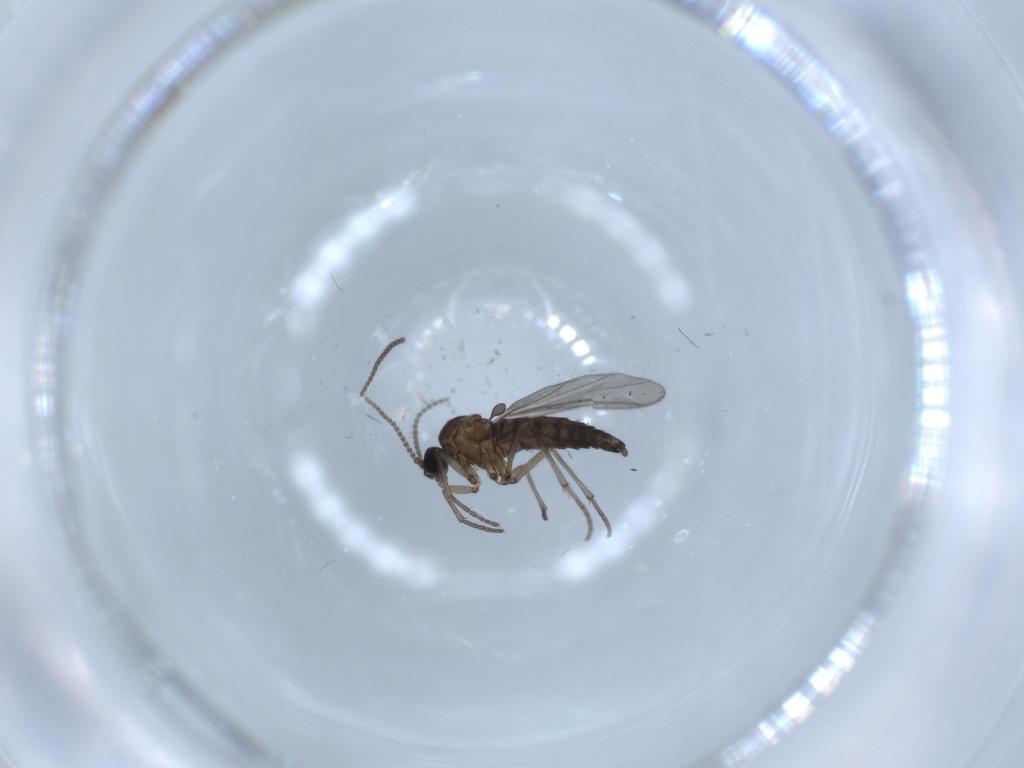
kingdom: Animalia
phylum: Arthropoda
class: Insecta
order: Diptera
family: Sciaridae
